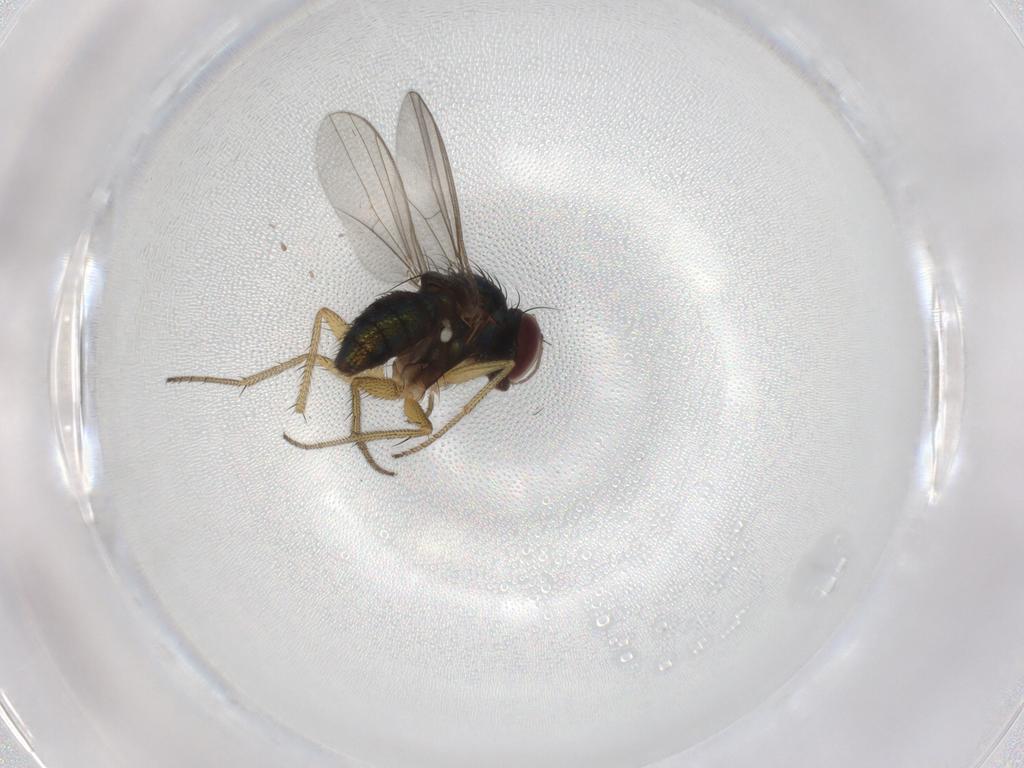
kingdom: Animalia
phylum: Arthropoda
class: Insecta
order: Diptera
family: Chironomidae
